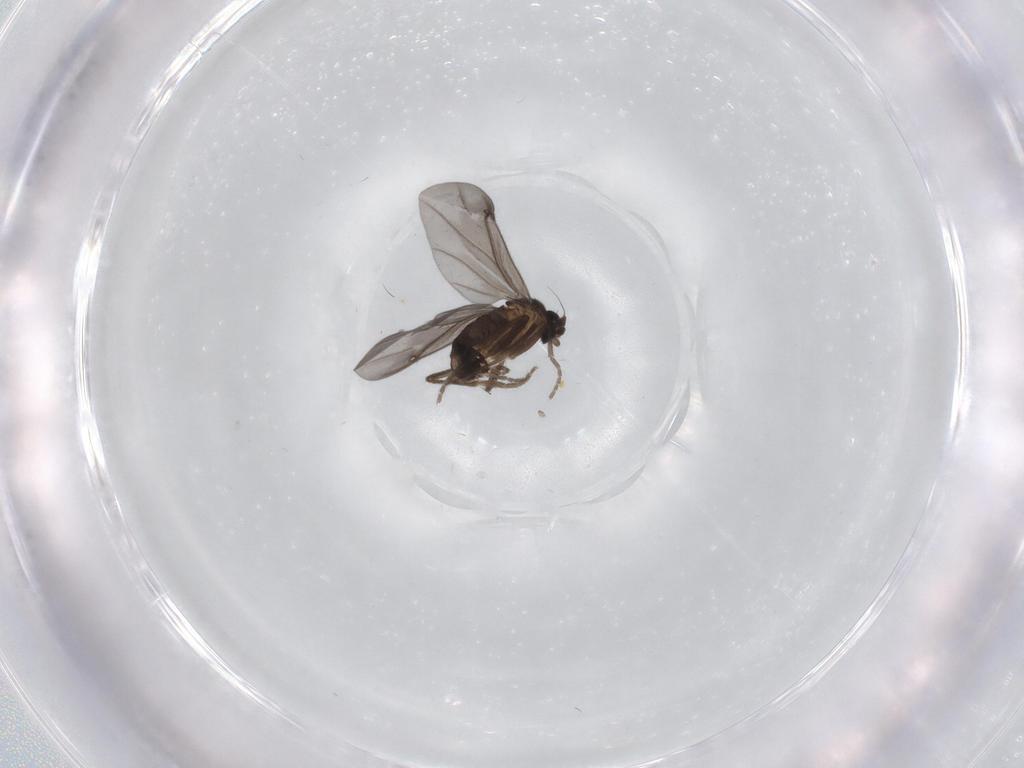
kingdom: Animalia
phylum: Arthropoda
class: Insecta
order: Diptera
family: Phoridae
